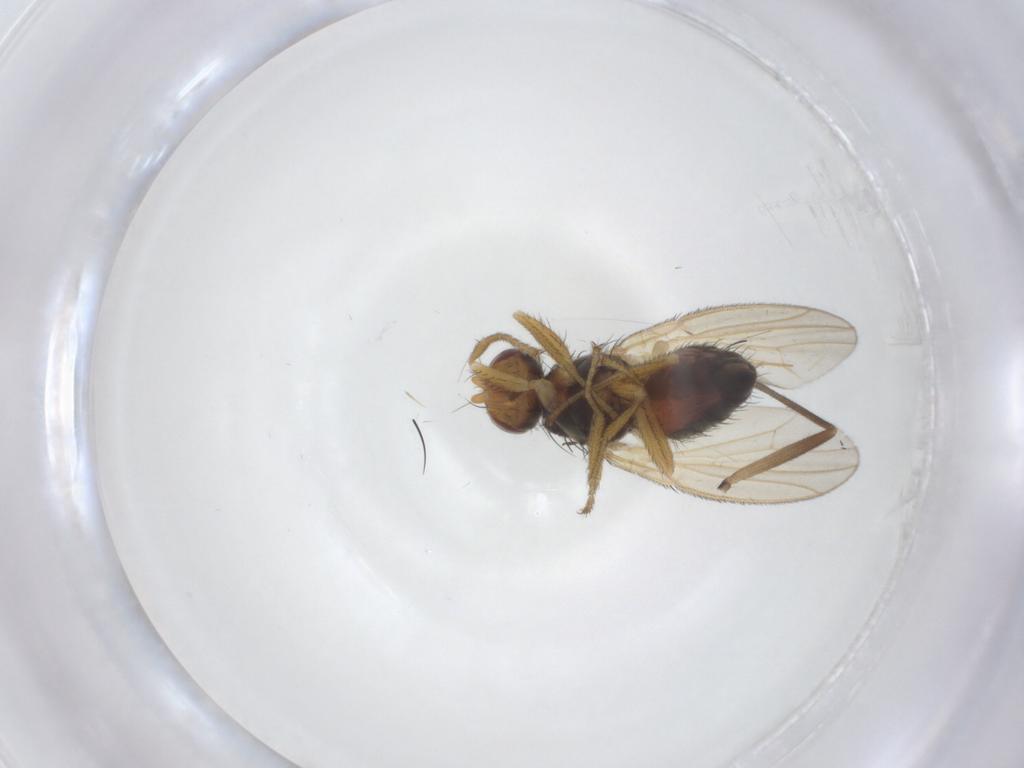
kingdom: Animalia
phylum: Arthropoda
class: Insecta
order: Diptera
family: Heleomyzidae
